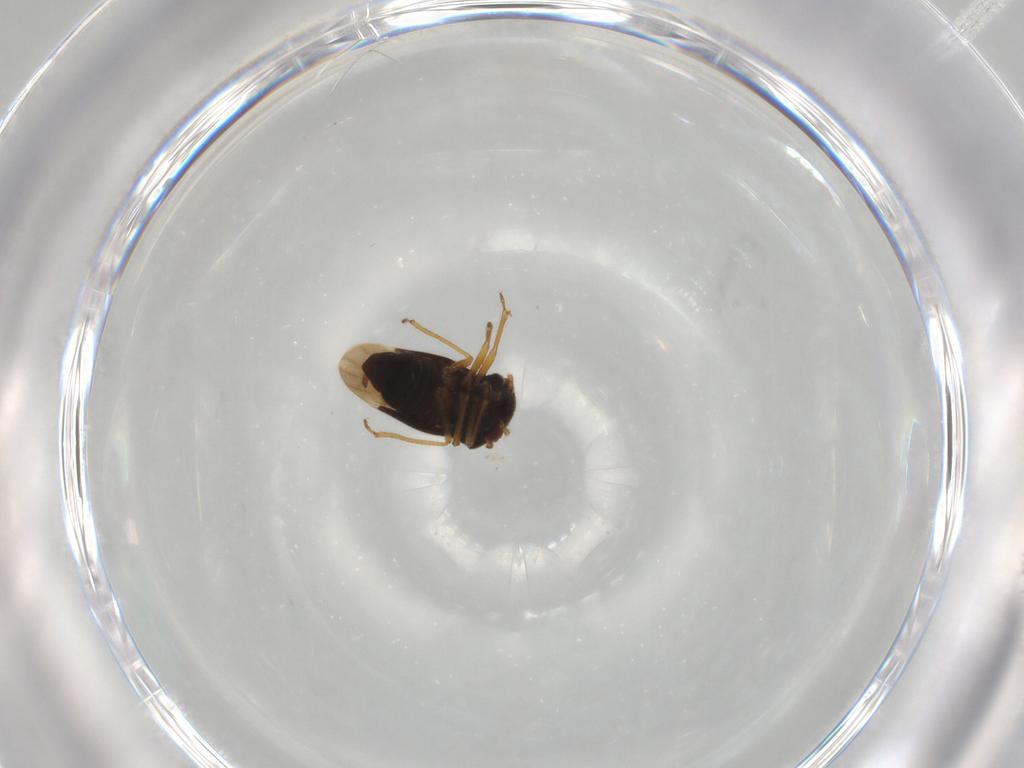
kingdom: Animalia
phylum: Arthropoda
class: Insecta
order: Hemiptera
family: Schizopteridae
